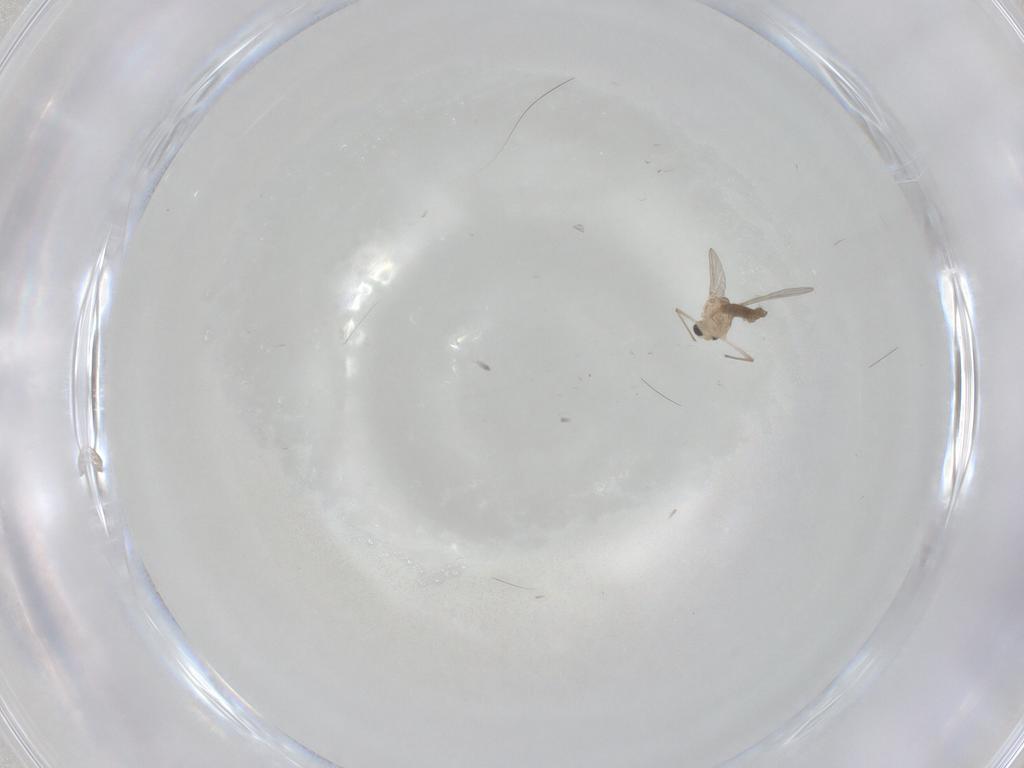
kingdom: Animalia
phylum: Arthropoda
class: Insecta
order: Diptera
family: Chironomidae
